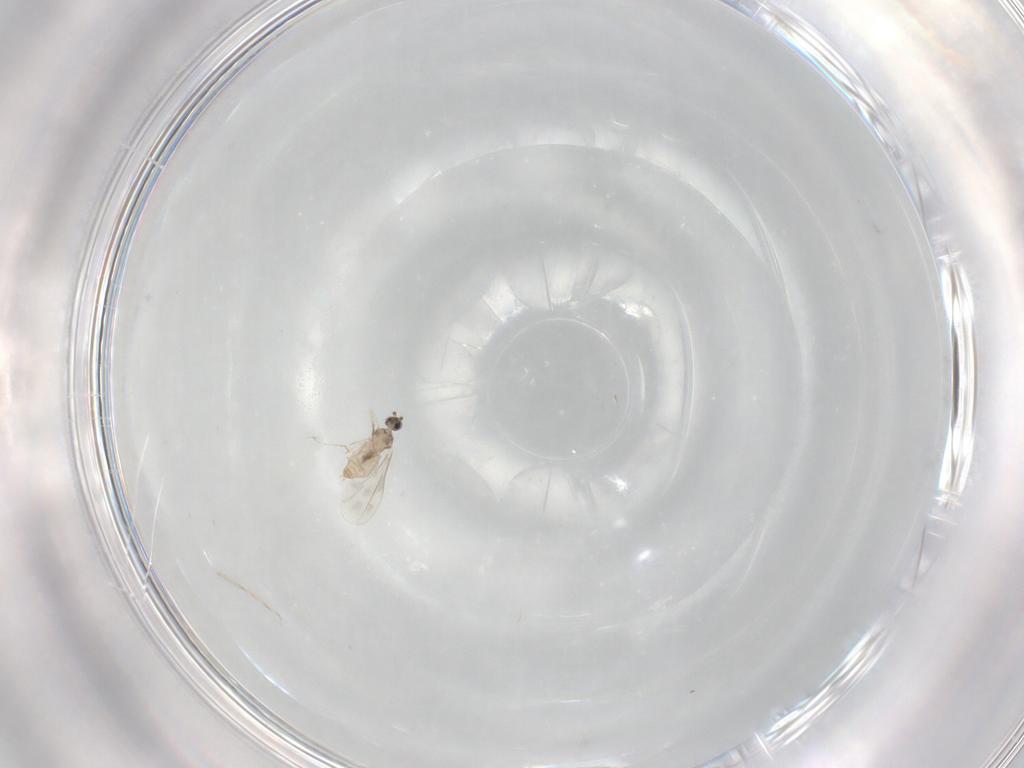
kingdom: Animalia
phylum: Arthropoda
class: Insecta
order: Diptera
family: Cecidomyiidae
